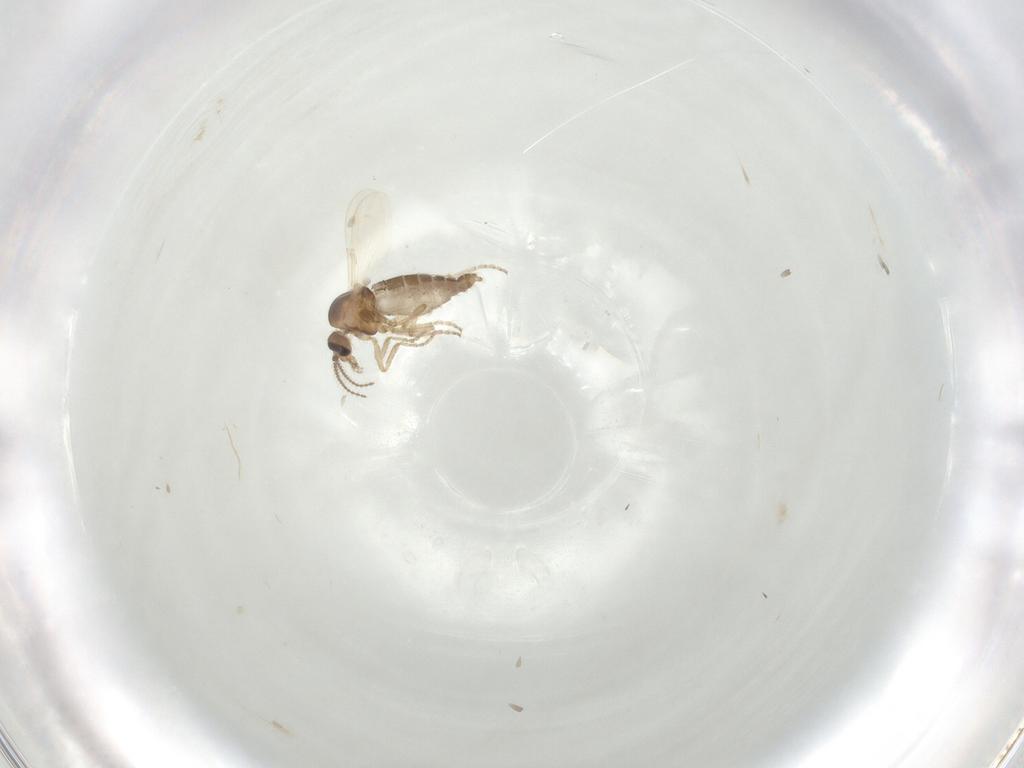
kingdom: Animalia
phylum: Arthropoda
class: Insecta
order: Diptera
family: Ceratopogonidae
